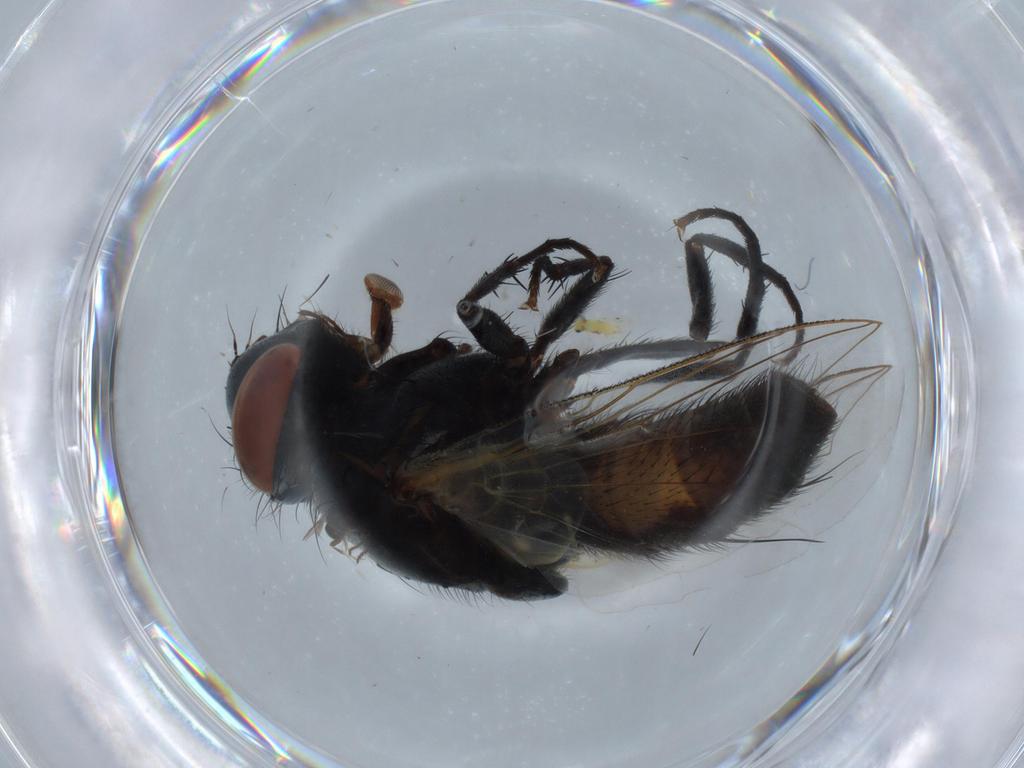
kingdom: Animalia
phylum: Arthropoda
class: Insecta
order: Diptera
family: Sarcophagidae
